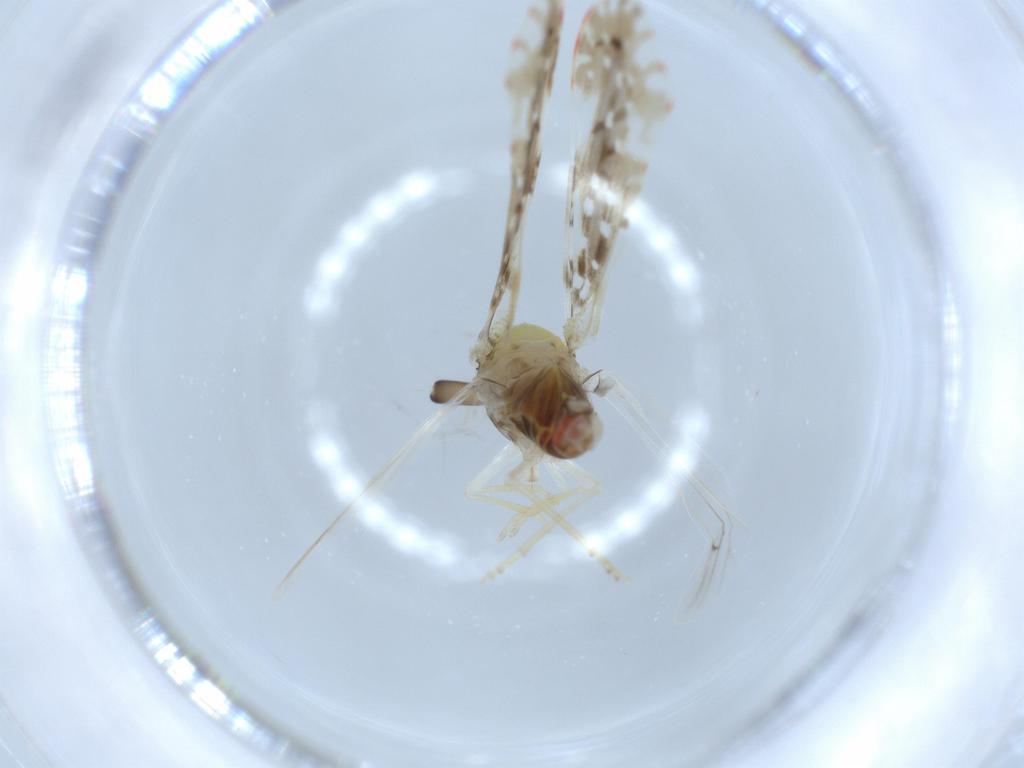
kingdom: Animalia
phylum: Arthropoda
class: Insecta
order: Hemiptera
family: Derbidae
